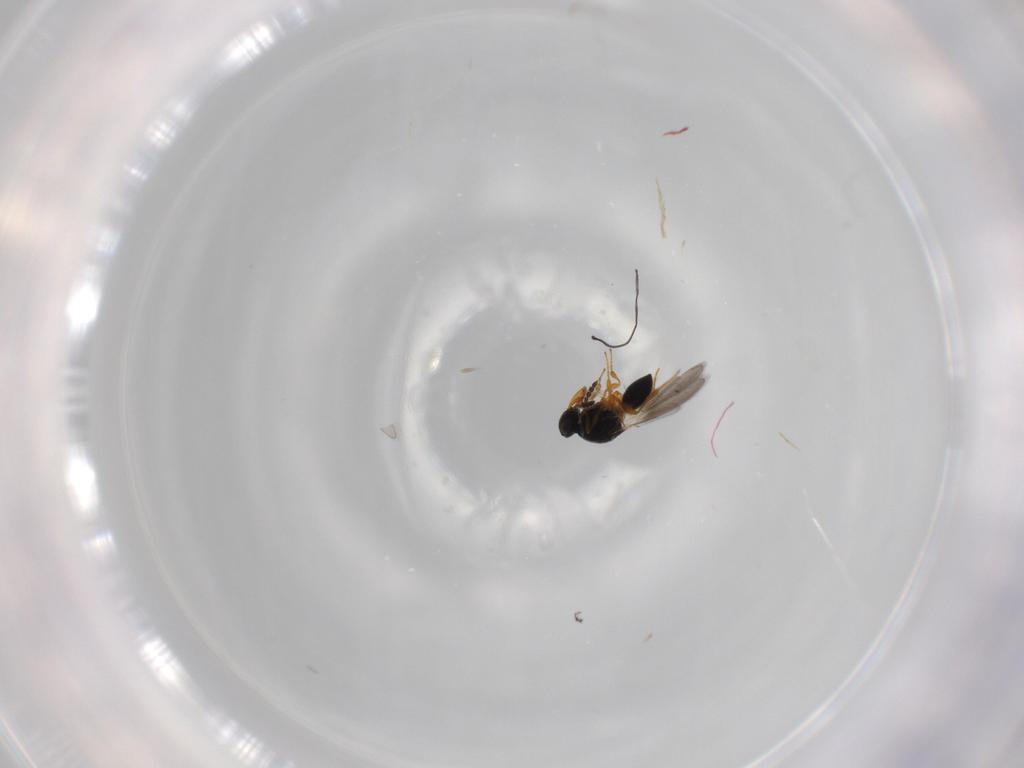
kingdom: Animalia
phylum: Arthropoda
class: Insecta
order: Hymenoptera
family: Platygastridae
